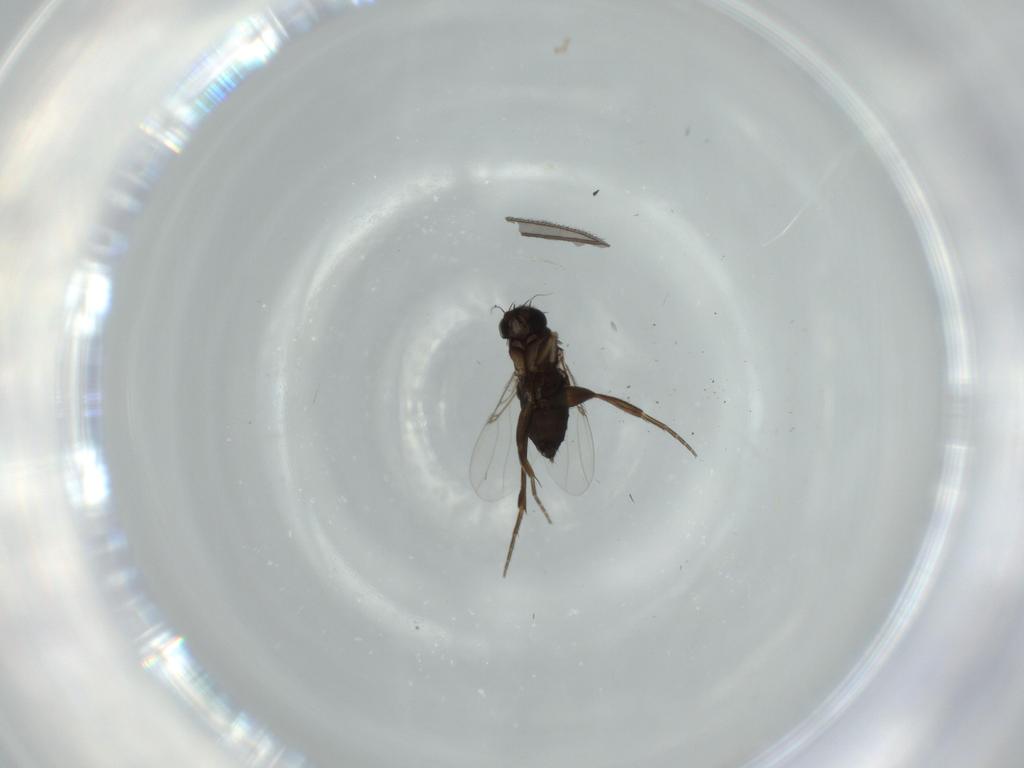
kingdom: Animalia
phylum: Arthropoda
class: Insecta
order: Diptera
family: Phoridae
